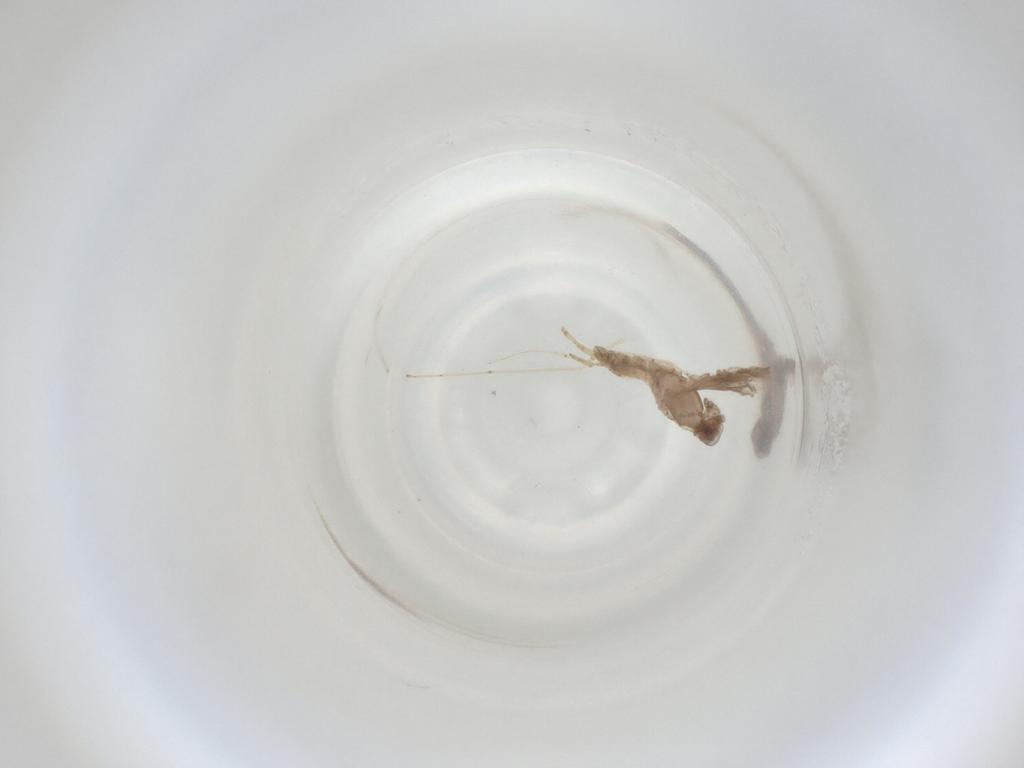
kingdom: Animalia
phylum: Arthropoda
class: Insecta
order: Diptera
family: Cecidomyiidae
